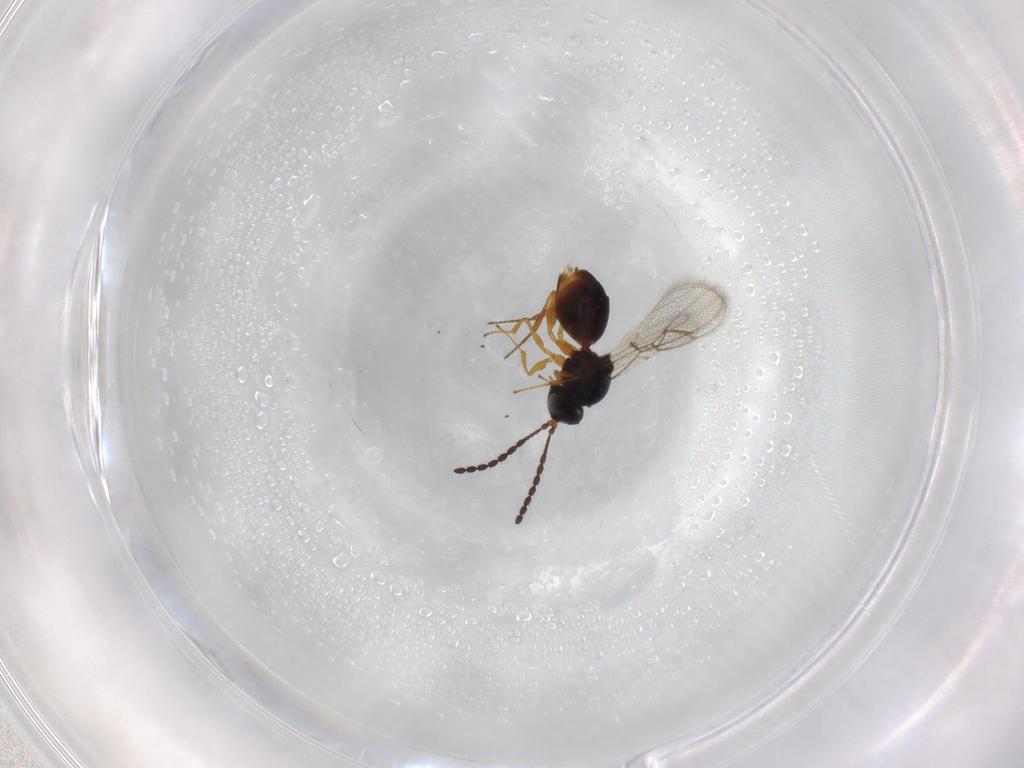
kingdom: Animalia
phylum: Arthropoda
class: Insecta
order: Hymenoptera
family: Figitidae
